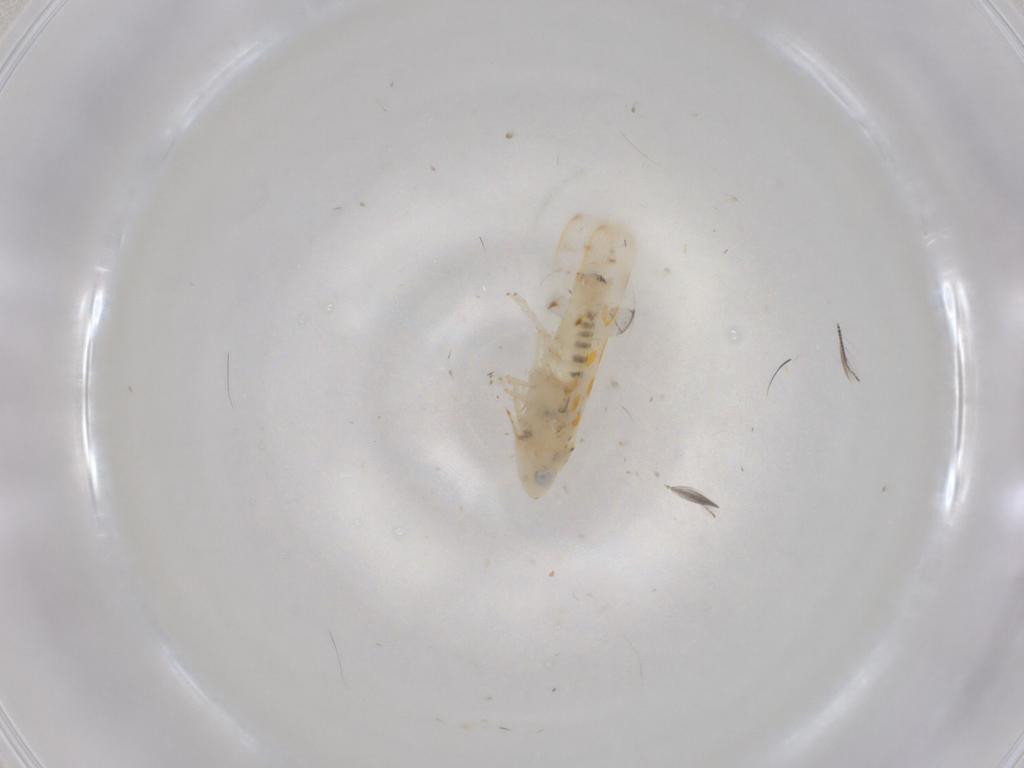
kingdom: Animalia
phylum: Arthropoda
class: Insecta
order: Hemiptera
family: Cicadellidae
